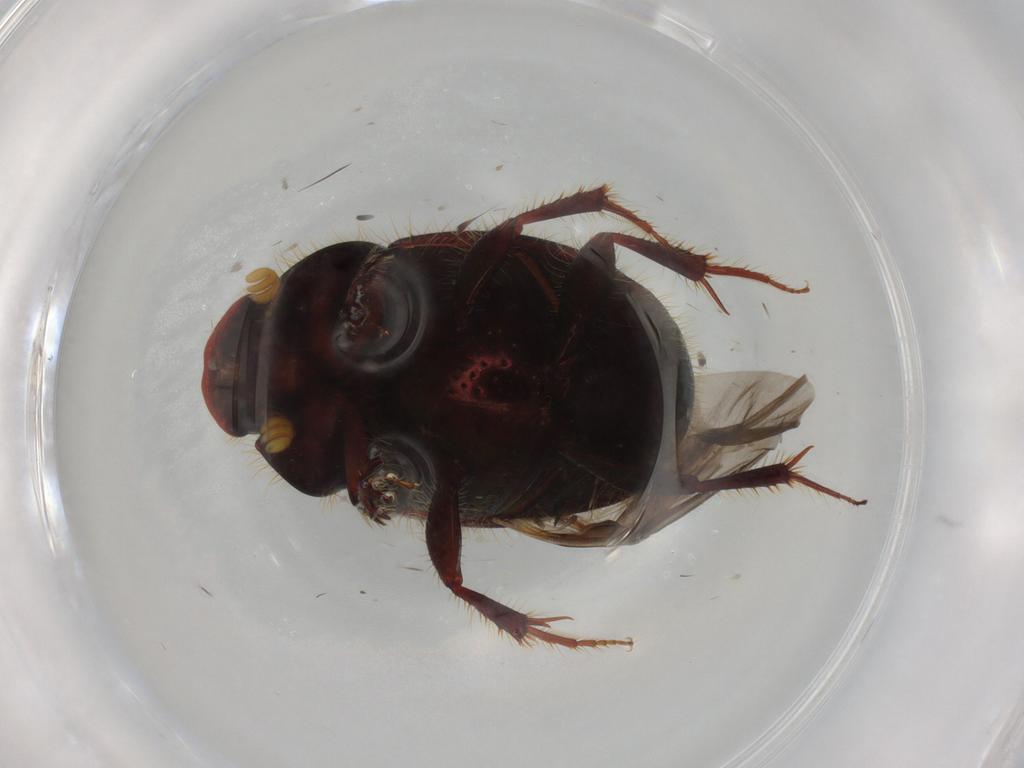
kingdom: Animalia
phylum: Arthropoda
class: Insecta
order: Coleoptera
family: Scarabaeidae
